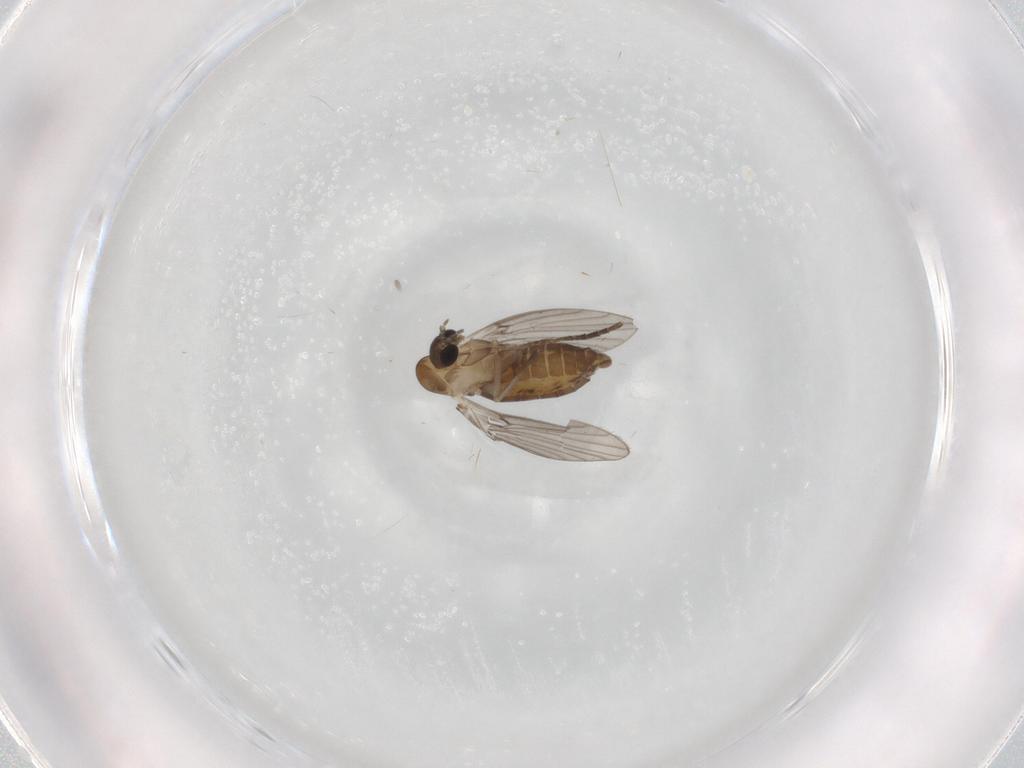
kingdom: Animalia
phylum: Arthropoda
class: Insecta
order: Diptera
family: Psychodidae
